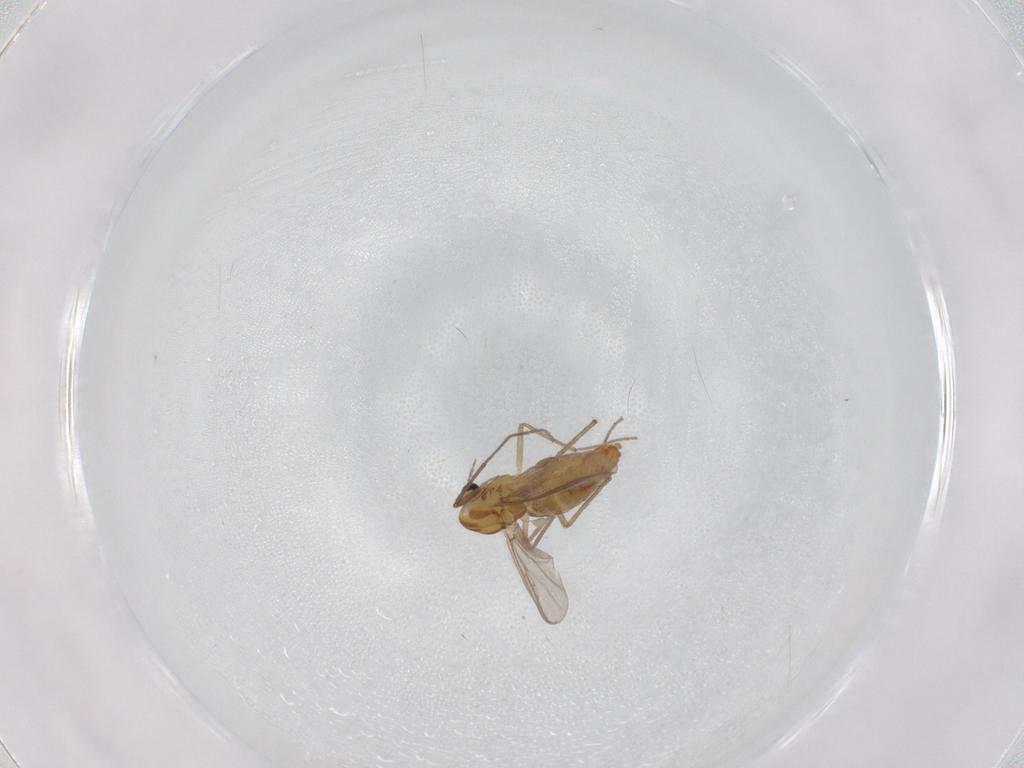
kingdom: Animalia
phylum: Arthropoda
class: Insecta
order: Diptera
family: Chironomidae
